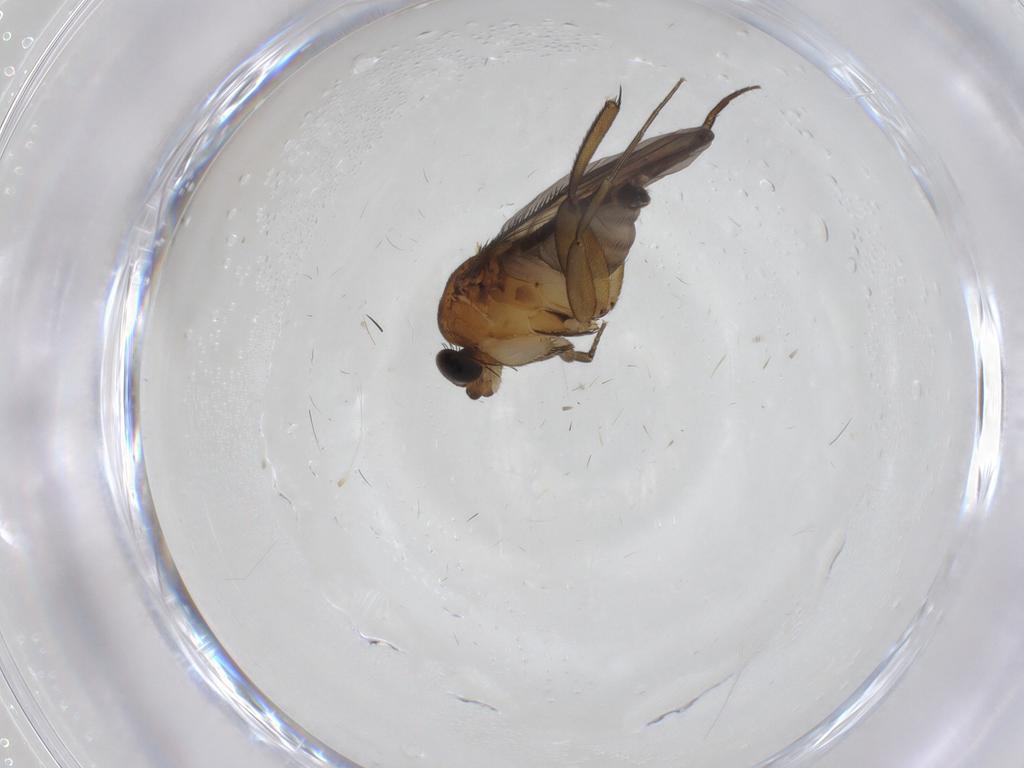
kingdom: Animalia
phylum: Arthropoda
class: Insecta
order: Diptera
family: Phoridae
